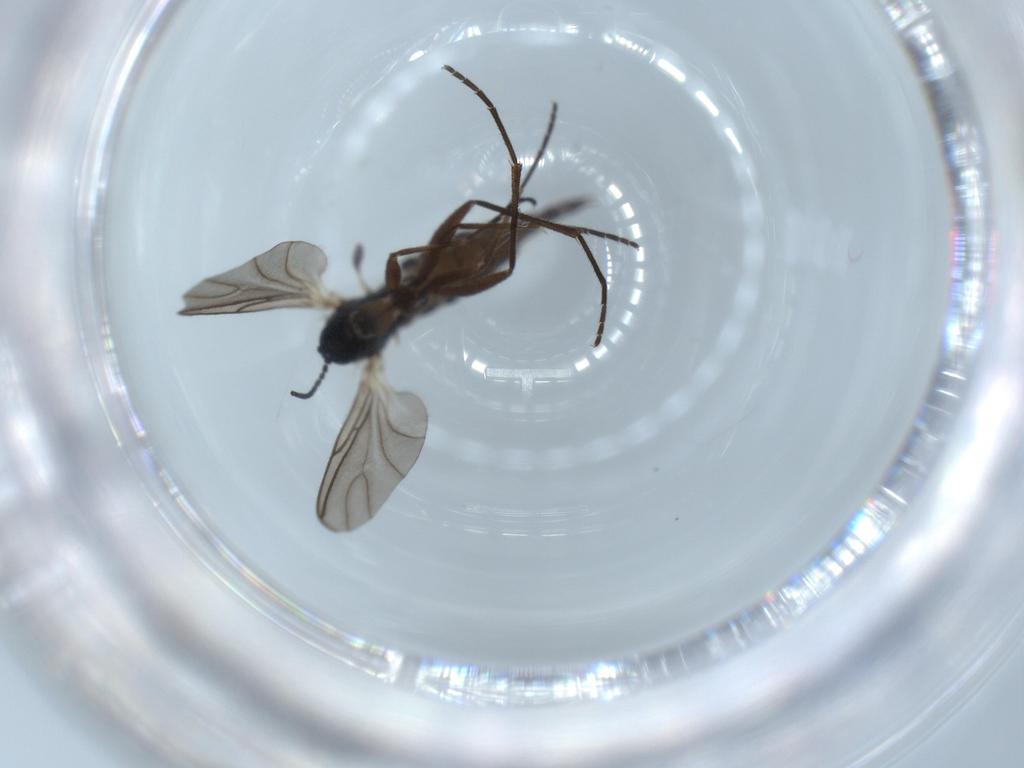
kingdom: Animalia
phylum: Arthropoda
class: Insecta
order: Diptera
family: Sciaridae
